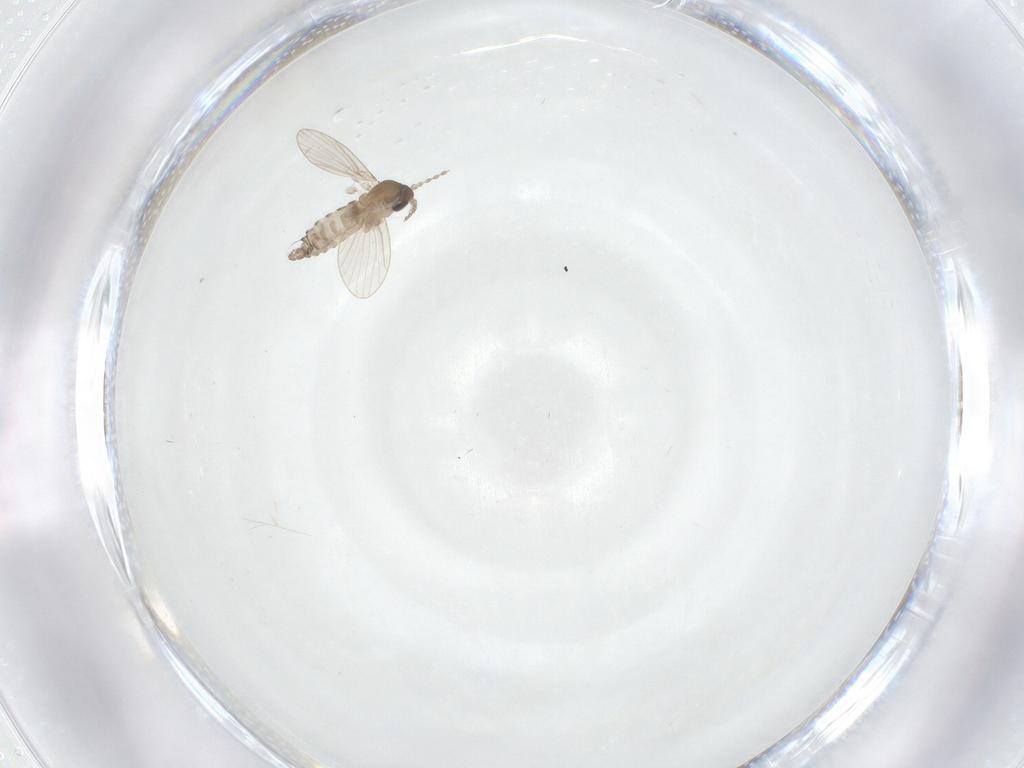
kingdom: Animalia
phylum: Arthropoda
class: Insecta
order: Diptera
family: Psychodidae
